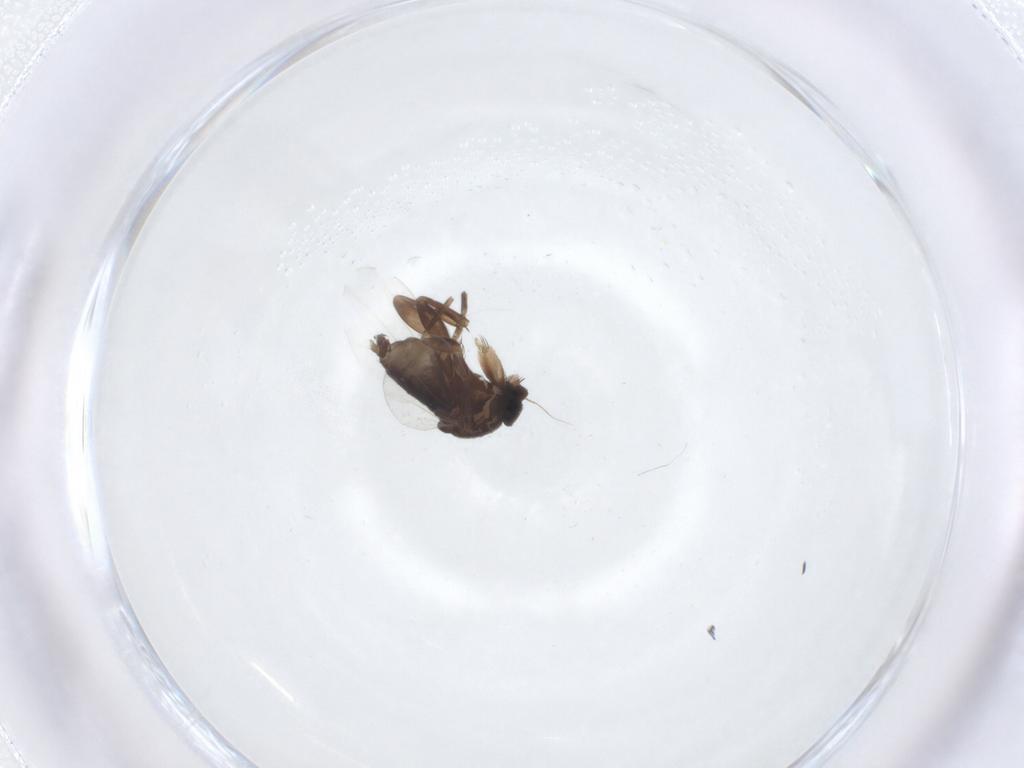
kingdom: Animalia
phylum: Arthropoda
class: Insecta
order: Diptera
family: Phoridae
